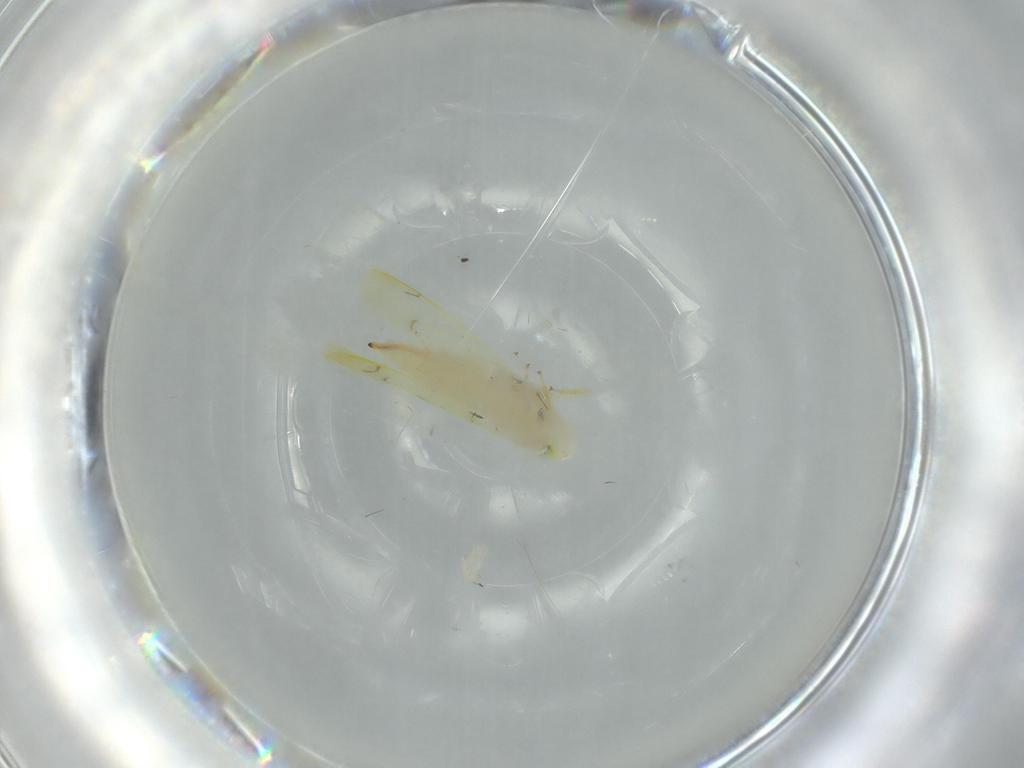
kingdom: Animalia
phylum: Arthropoda
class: Insecta
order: Hemiptera
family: Cicadellidae
